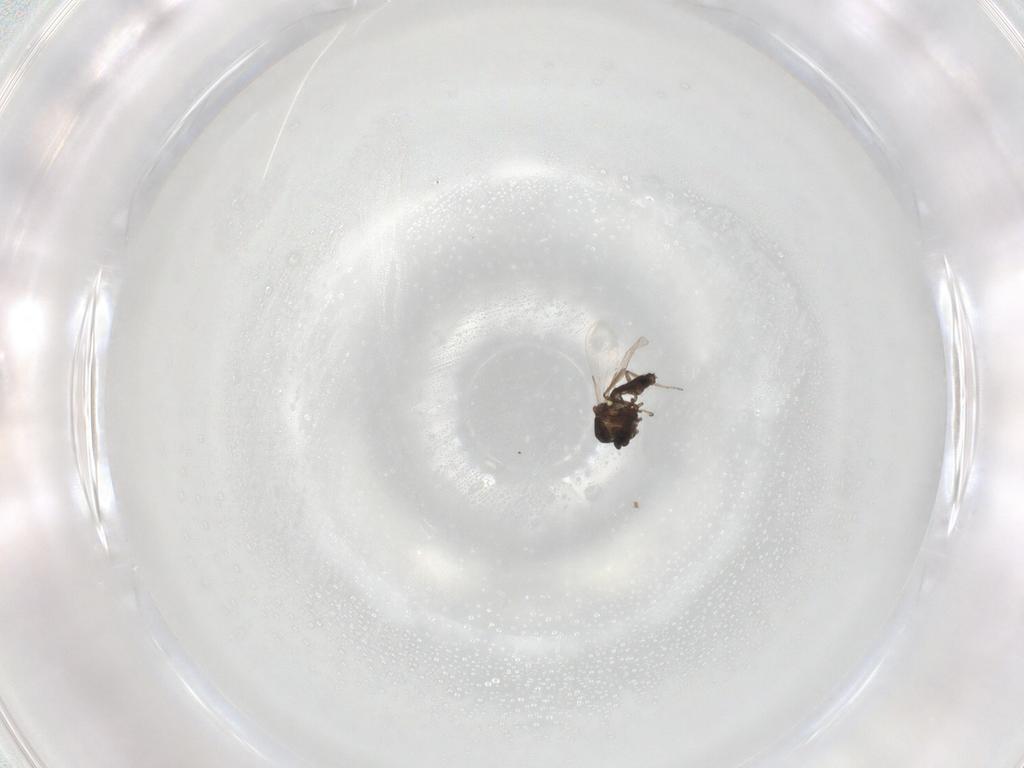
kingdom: Animalia
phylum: Arthropoda
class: Insecta
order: Diptera
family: Ceratopogonidae
